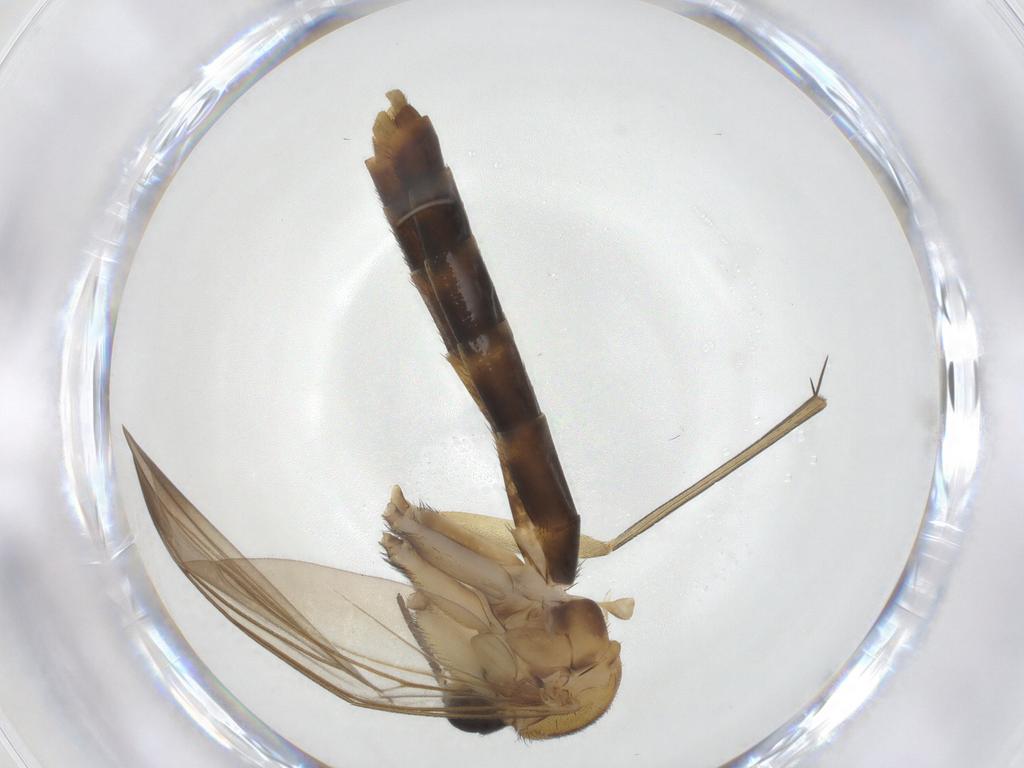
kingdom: Animalia
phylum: Arthropoda
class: Insecta
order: Diptera
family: Keroplatidae
